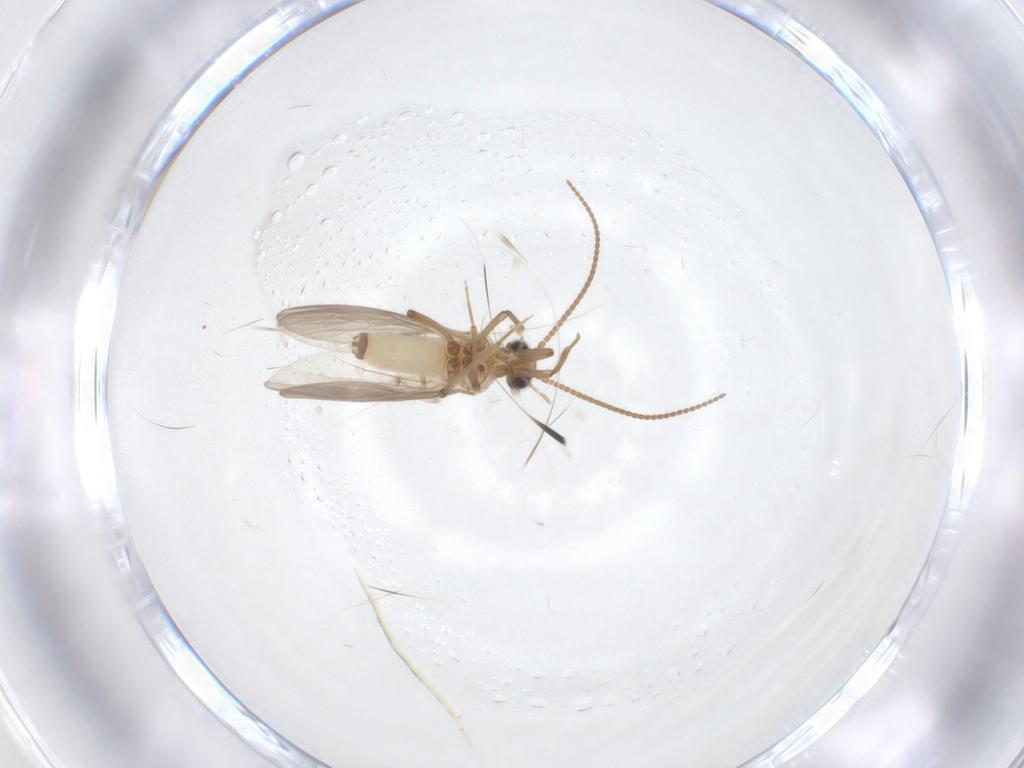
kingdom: Animalia
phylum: Arthropoda
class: Insecta
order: Neuroptera
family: Coniopterygidae
